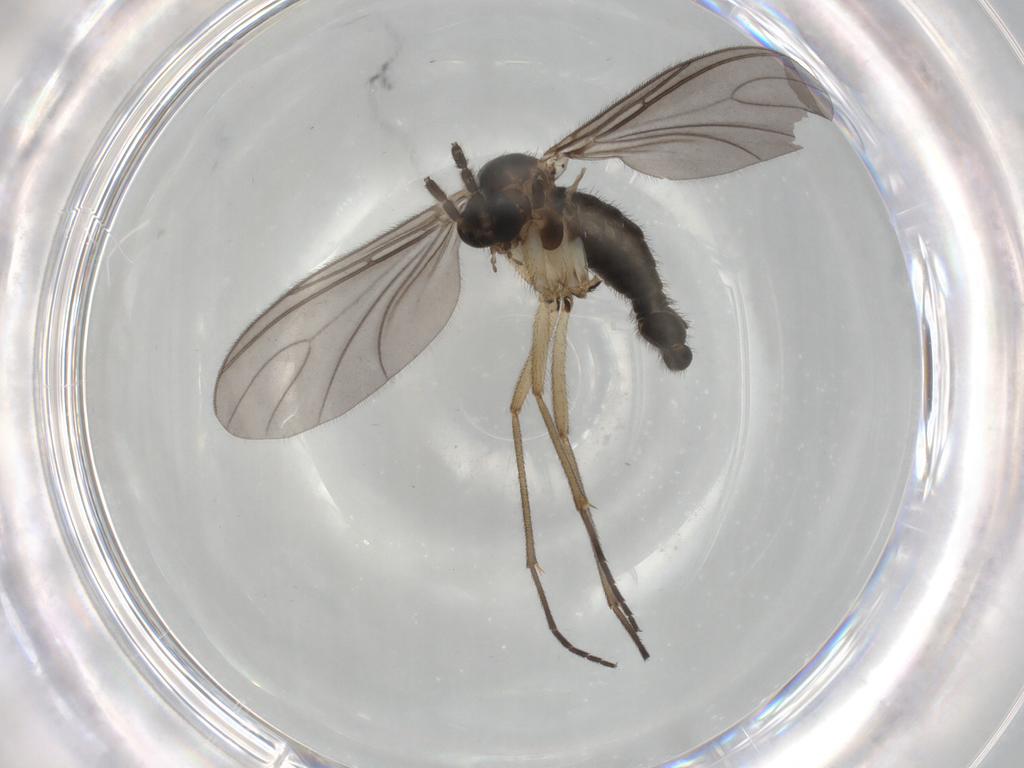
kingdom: Animalia
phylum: Arthropoda
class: Insecta
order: Diptera
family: Sciaridae
